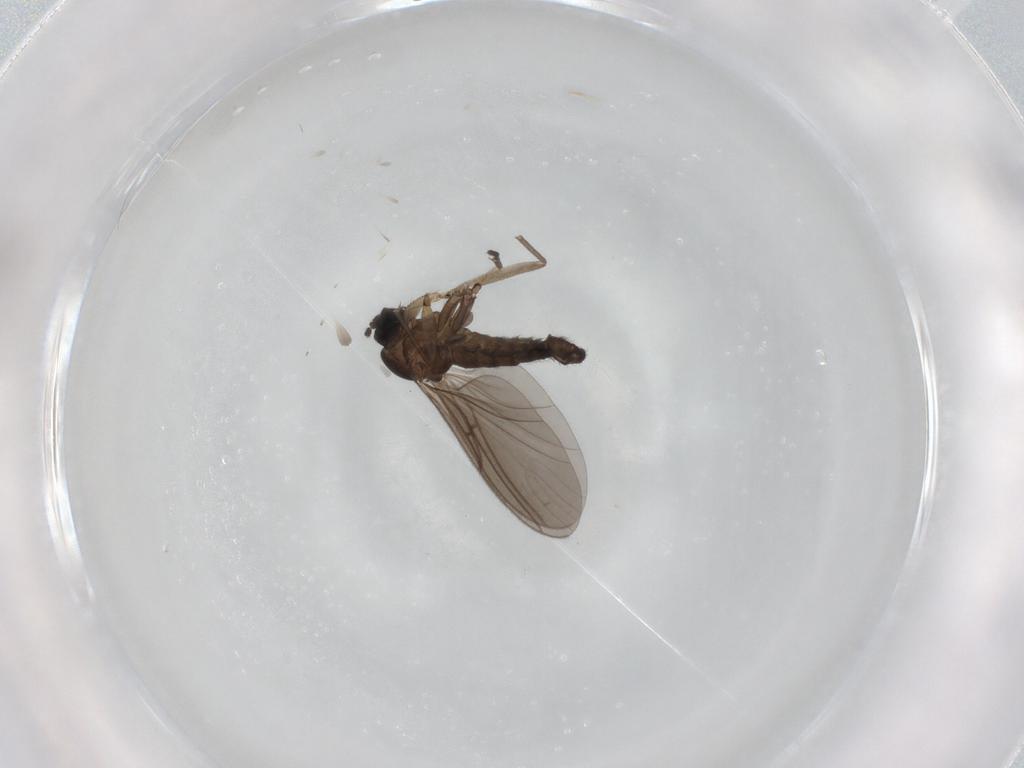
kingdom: Animalia
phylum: Arthropoda
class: Insecta
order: Diptera
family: Sciaridae
